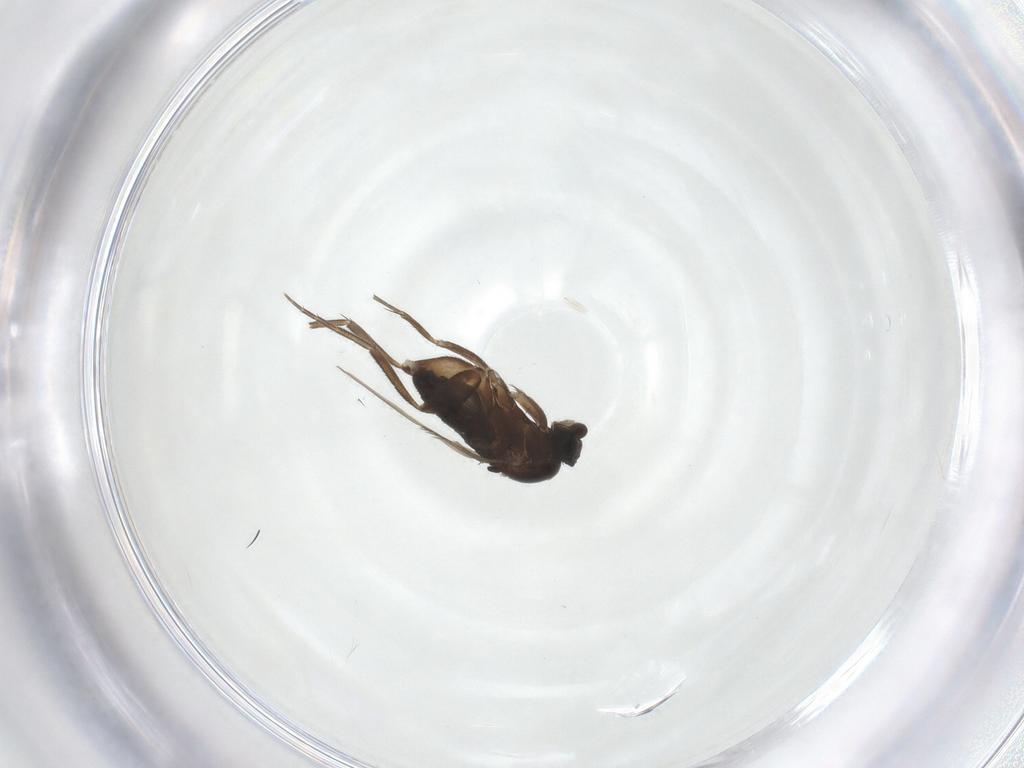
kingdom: Animalia
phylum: Arthropoda
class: Insecta
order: Diptera
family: Phoridae
